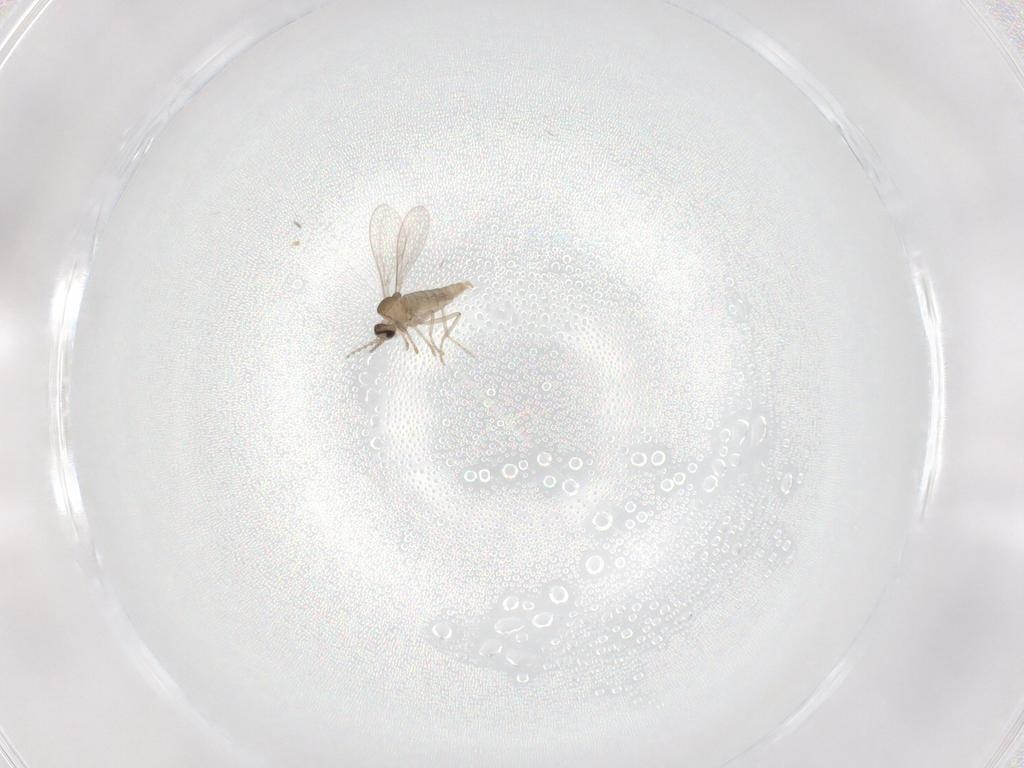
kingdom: Animalia
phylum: Arthropoda
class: Insecta
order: Diptera
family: Cecidomyiidae
